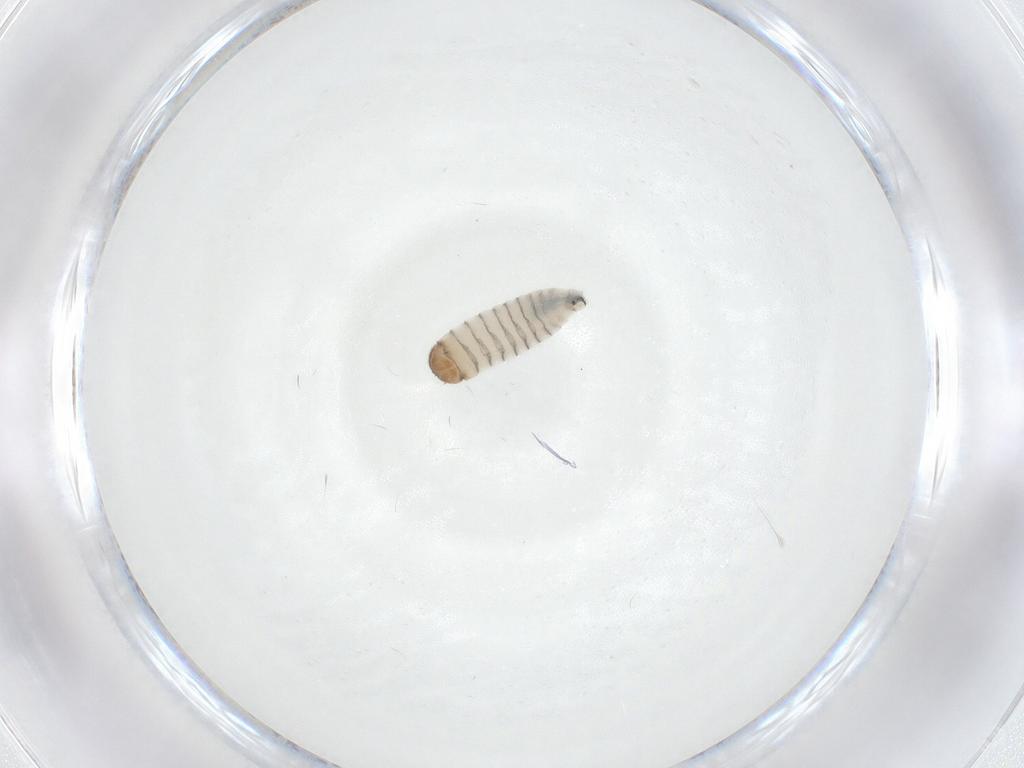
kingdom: Animalia
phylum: Arthropoda
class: Insecta
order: Diptera
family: Sarcophagidae
